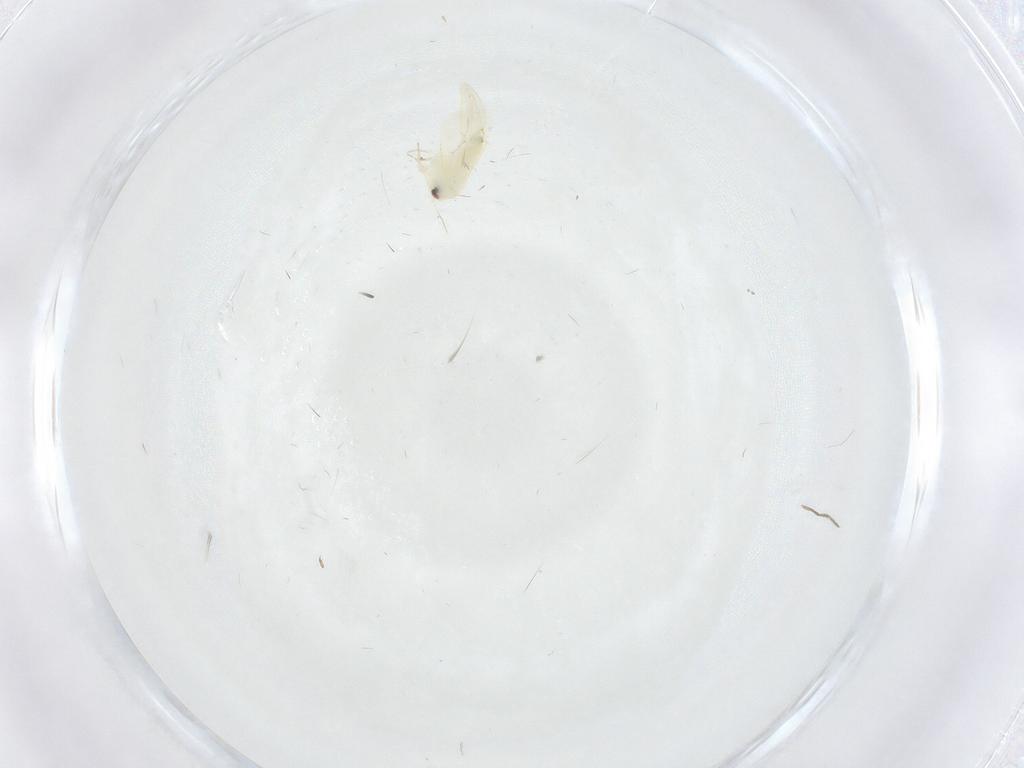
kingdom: Animalia
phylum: Arthropoda
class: Insecta
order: Hemiptera
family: Aleyrodidae
